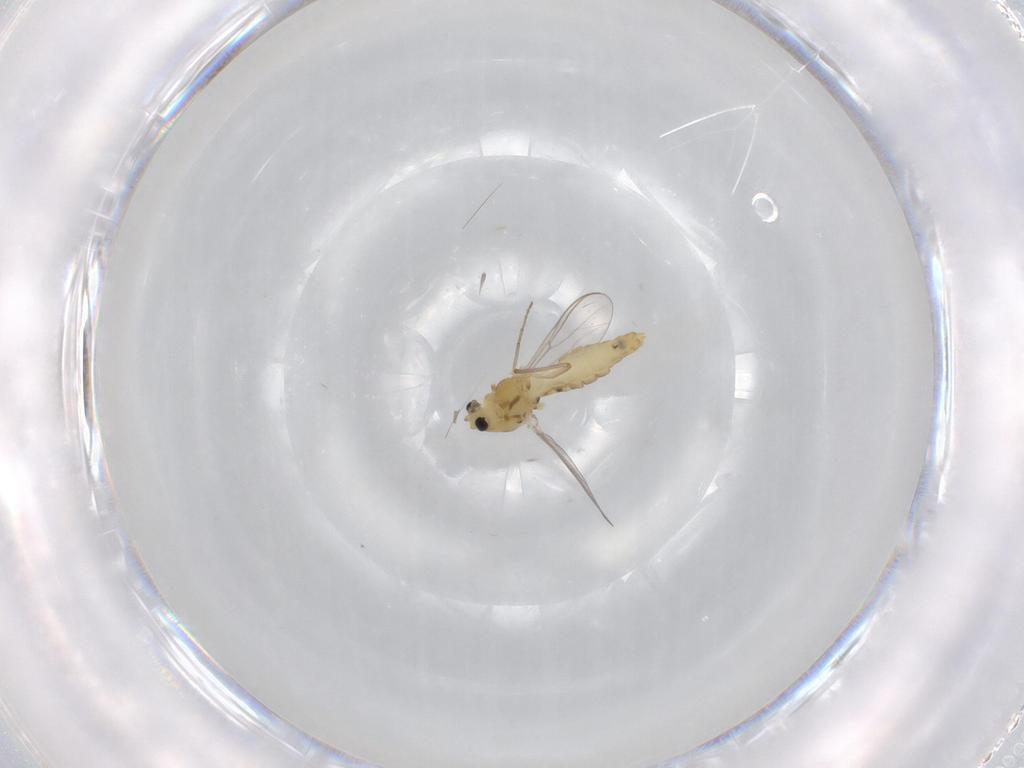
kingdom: Animalia
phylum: Arthropoda
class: Insecta
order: Diptera
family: Chironomidae
